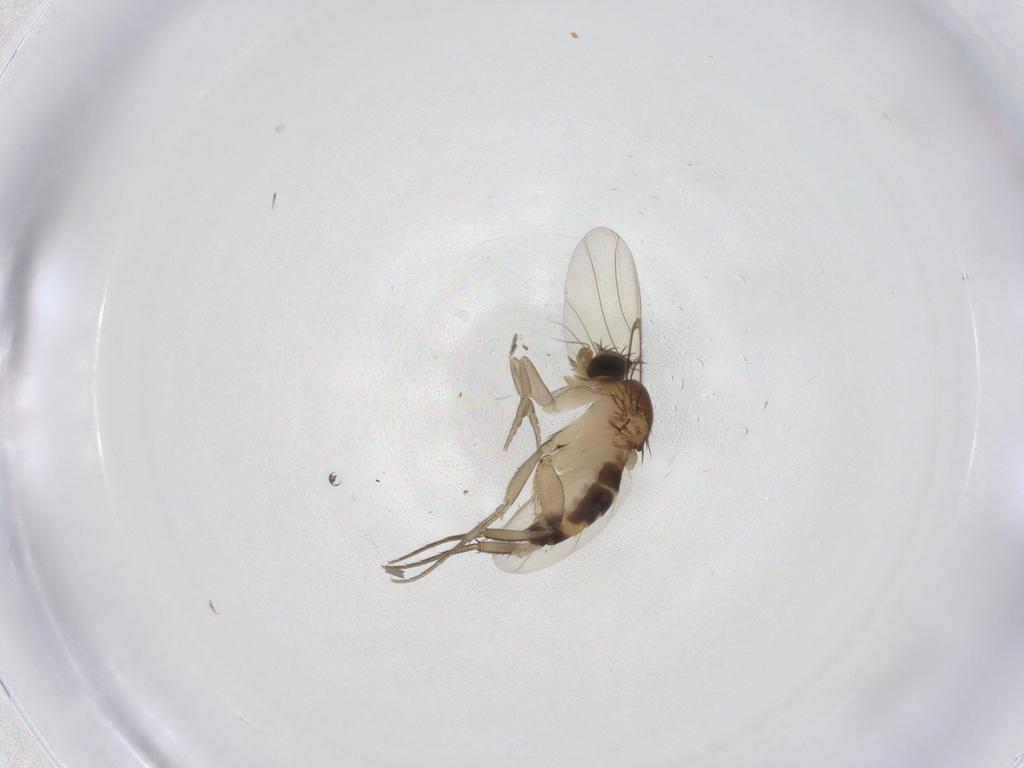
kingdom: Animalia
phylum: Arthropoda
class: Insecta
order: Diptera
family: Phoridae
